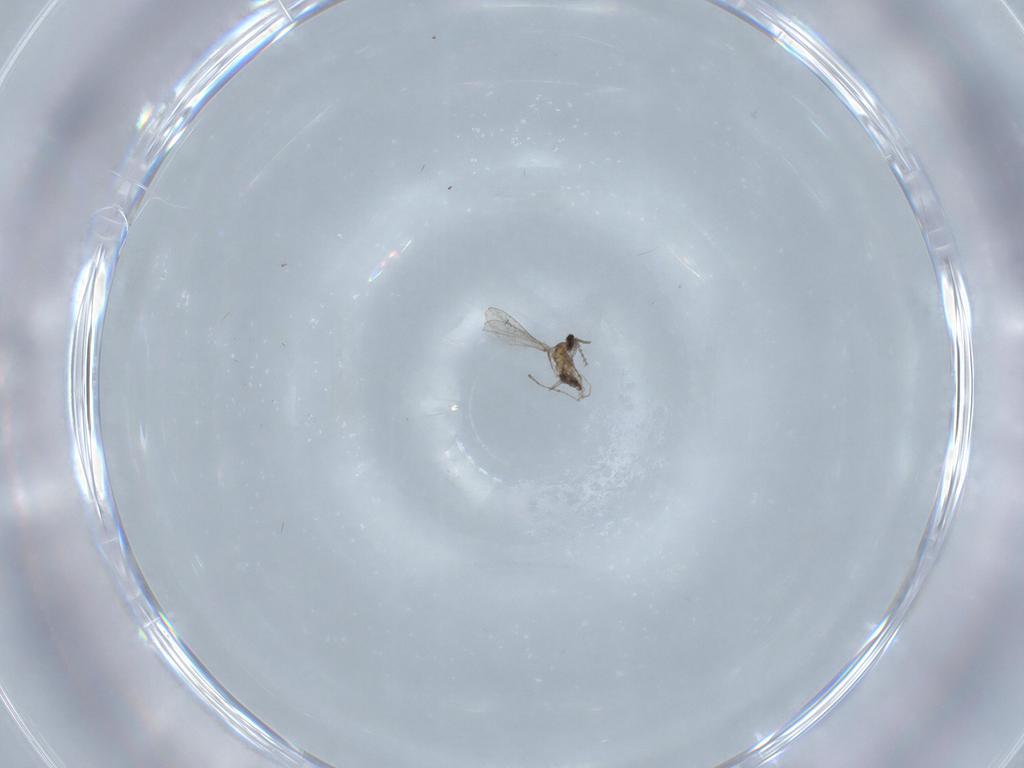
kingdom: Animalia
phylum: Arthropoda
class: Insecta
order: Diptera
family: Cecidomyiidae
